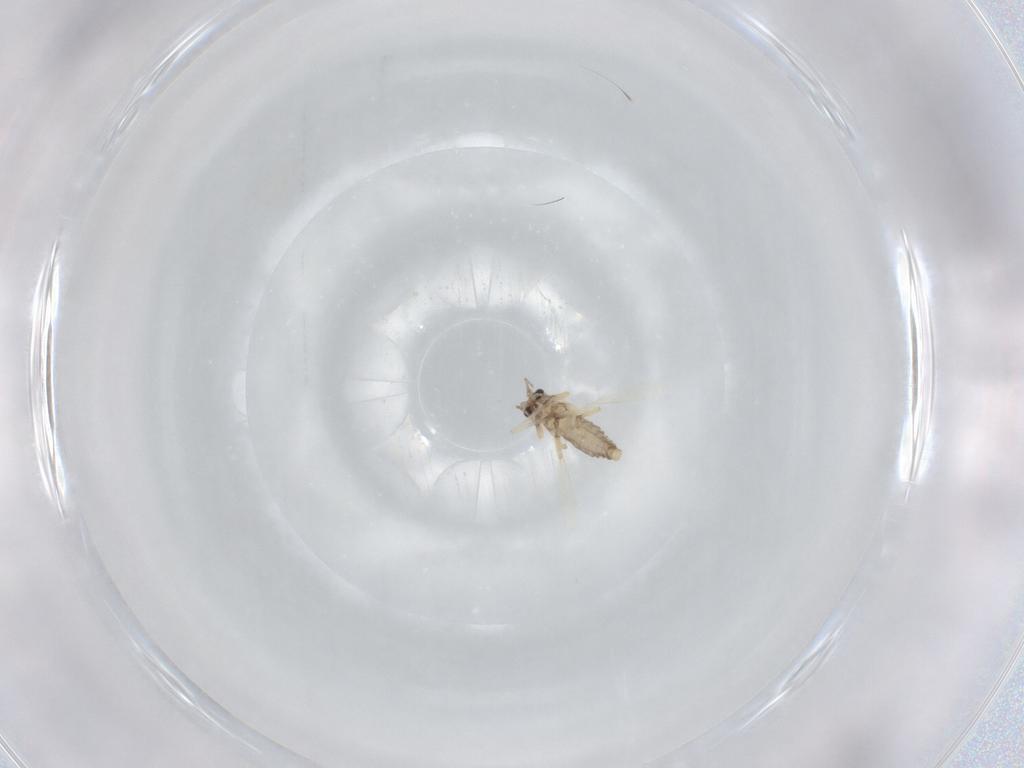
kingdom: Animalia
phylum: Arthropoda
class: Insecta
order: Diptera
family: Ceratopogonidae
